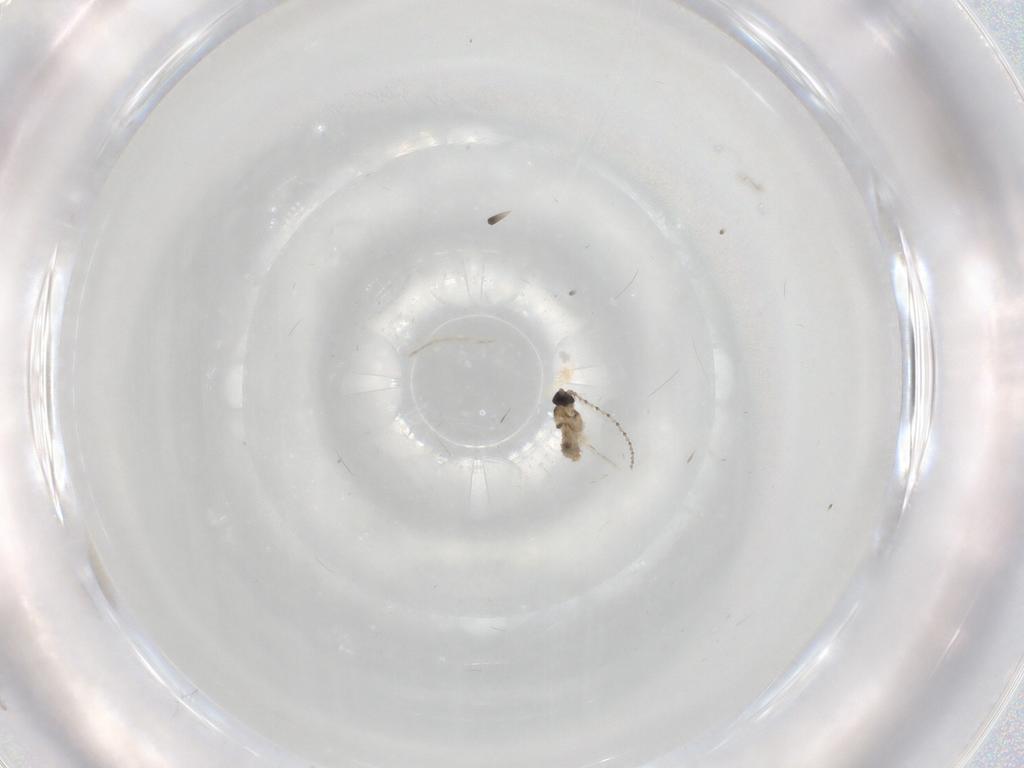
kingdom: Animalia
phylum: Arthropoda
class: Insecta
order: Diptera
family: Cecidomyiidae
